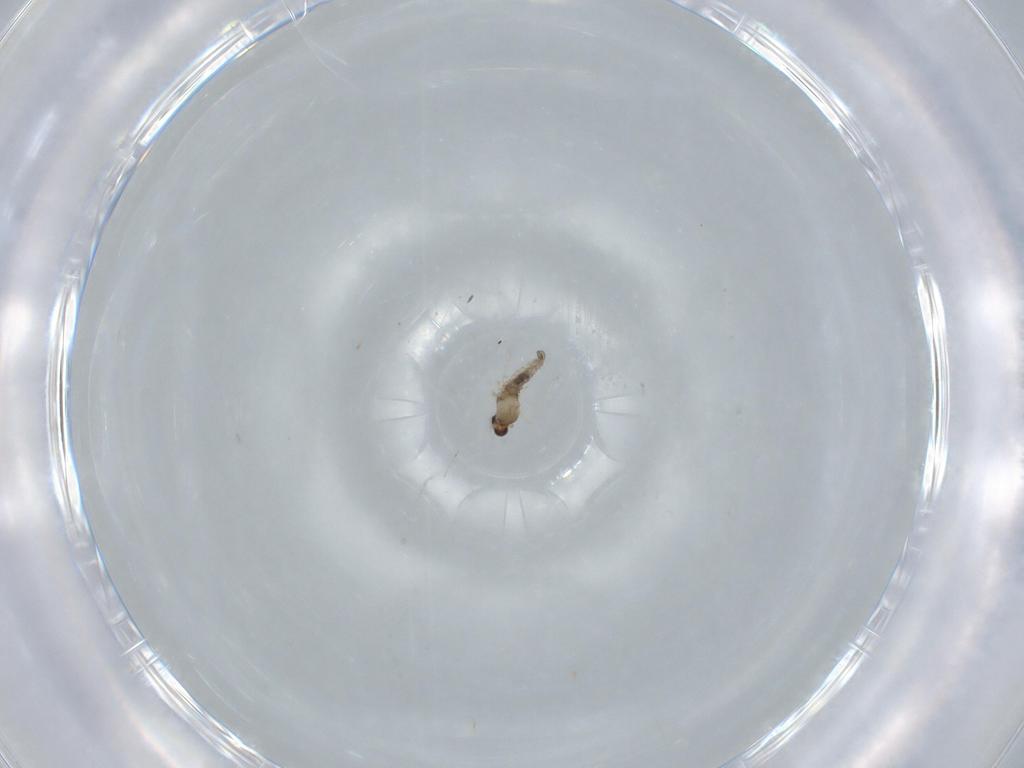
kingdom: Animalia
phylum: Arthropoda
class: Insecta
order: Diptera
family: Cecidomyiidae
